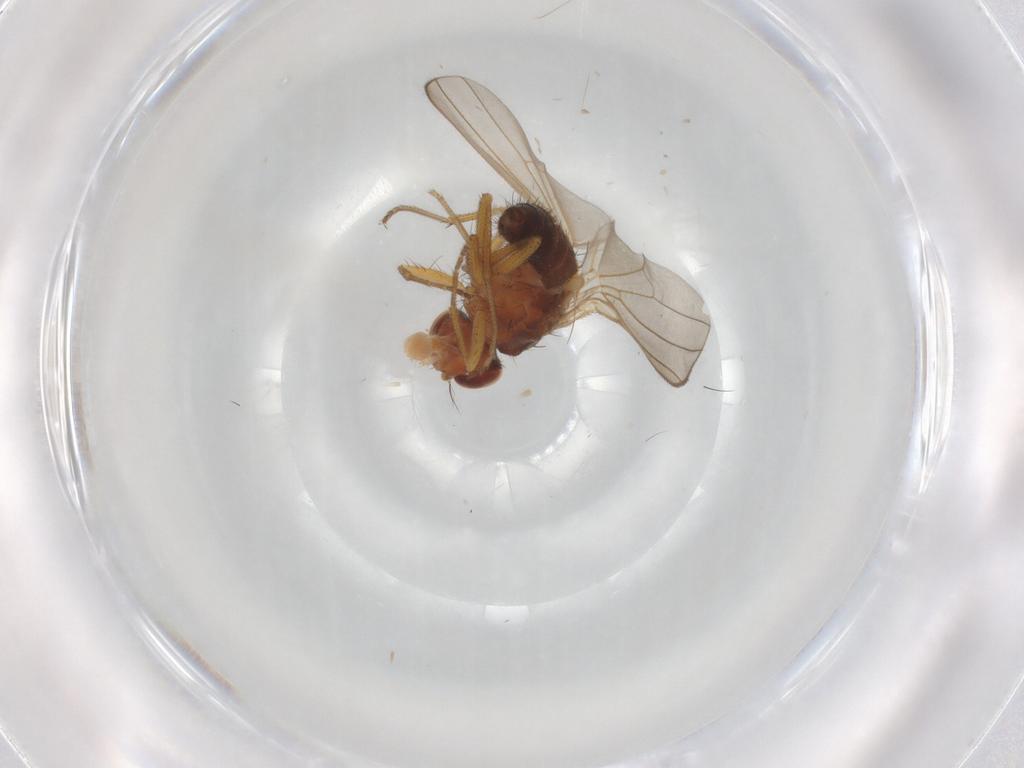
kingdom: Animalia
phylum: Arthropoda
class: Insecta
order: Diptera
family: Drosophilidae
